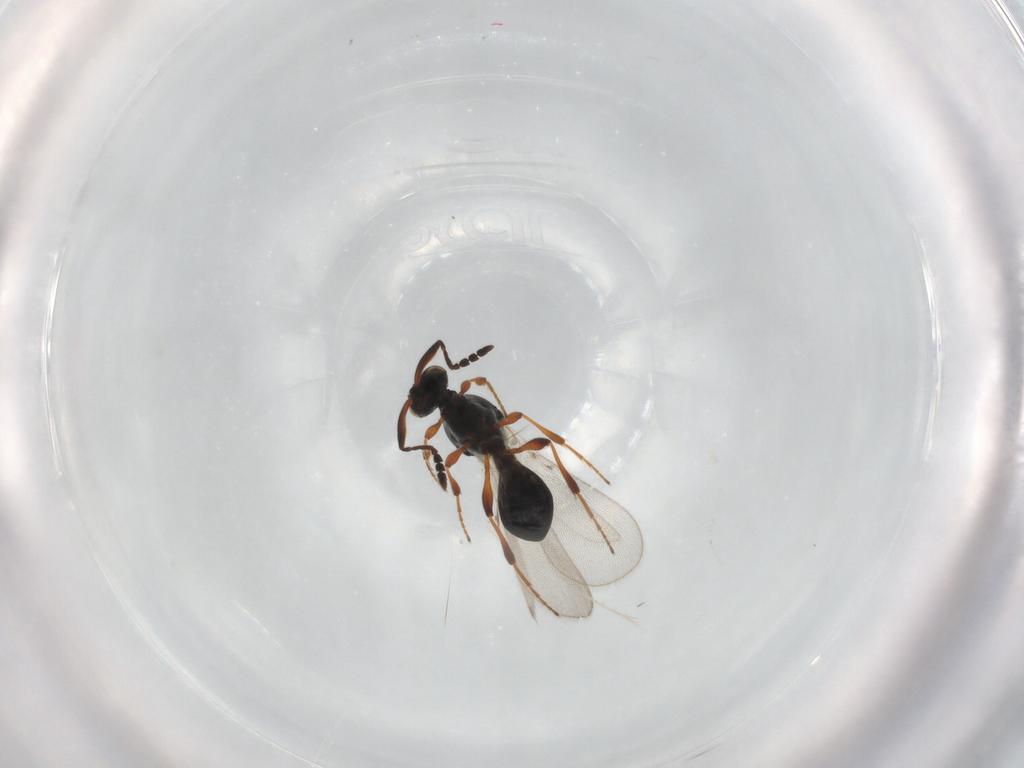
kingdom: Animalia
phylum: Arthropoda
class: Insecta
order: Hymenoptera
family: Platygastridae
